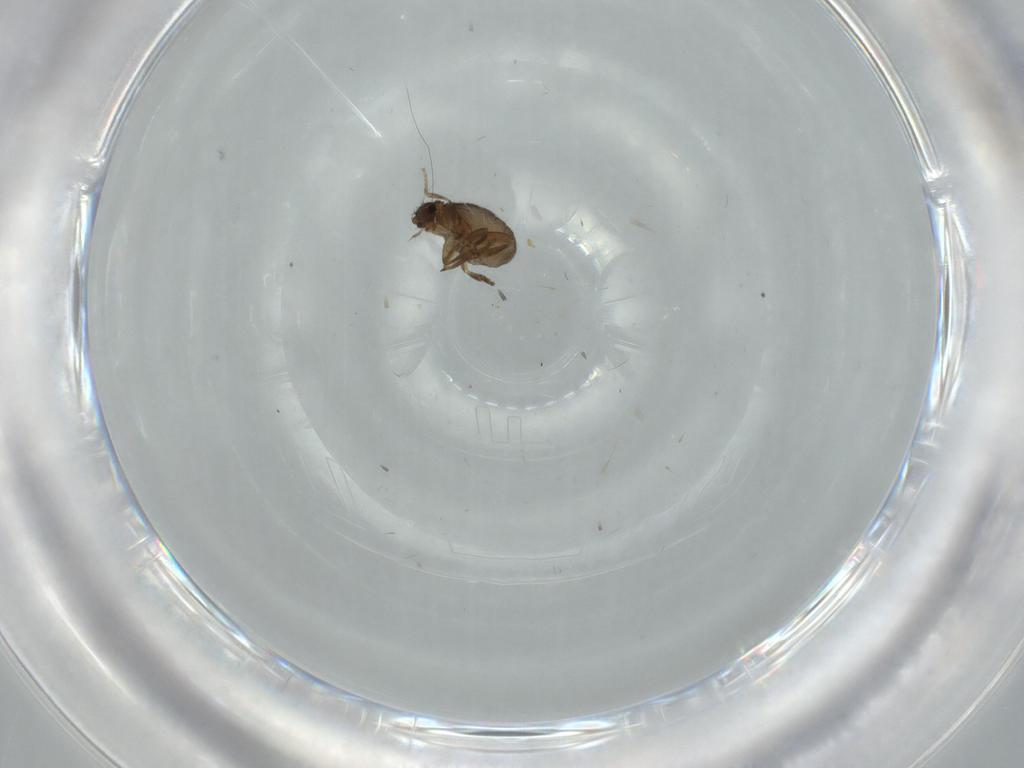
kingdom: Animalia
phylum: Arthropoda
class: Insecta
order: Diptera
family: Phoridae
